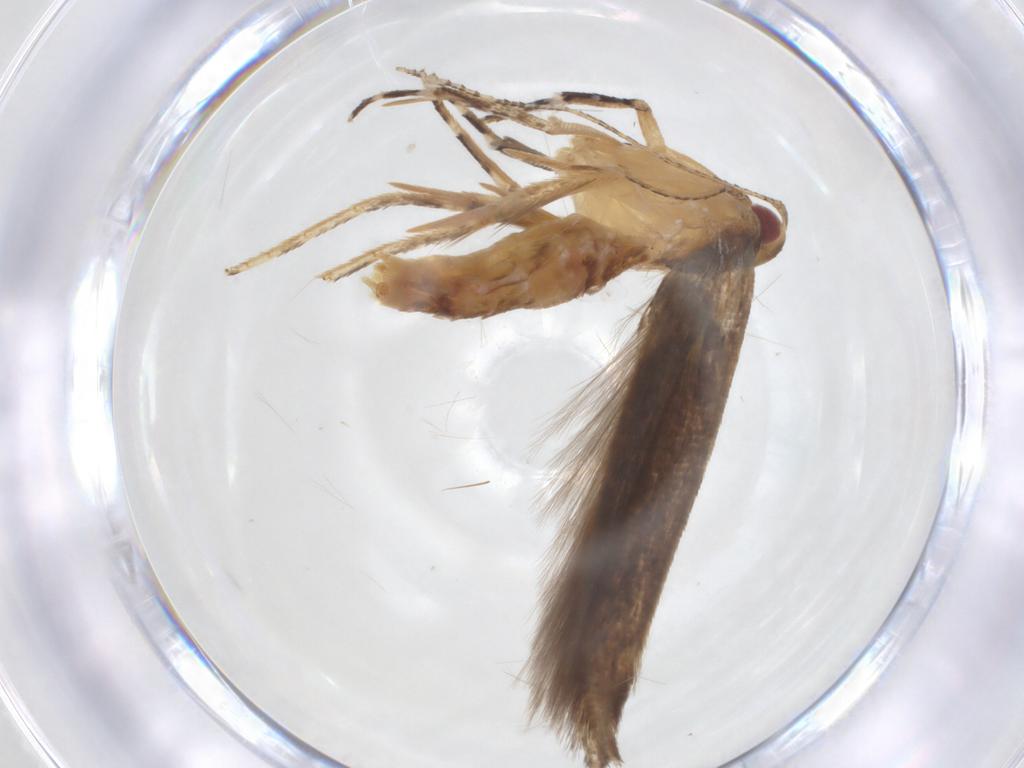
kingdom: Animalia
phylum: Arthropoda
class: Insecta
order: Lepidoptera
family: Erebidae
